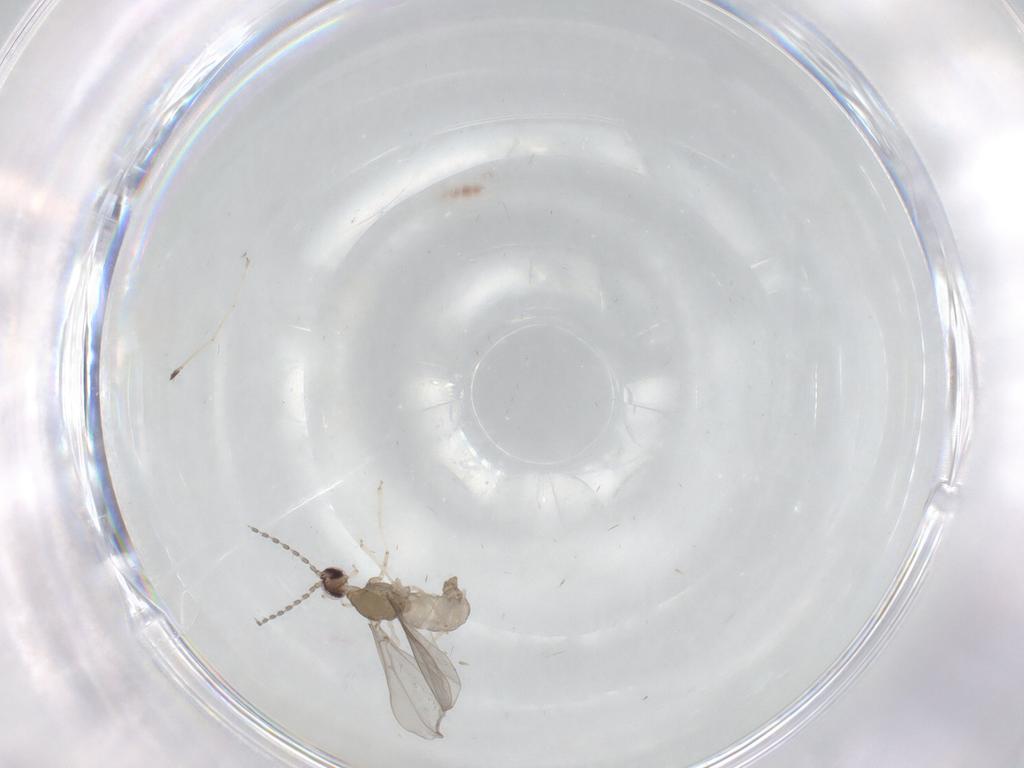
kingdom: Animalia
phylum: Arthropoda
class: Insecta
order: Diptera
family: Cecidomyiidae
